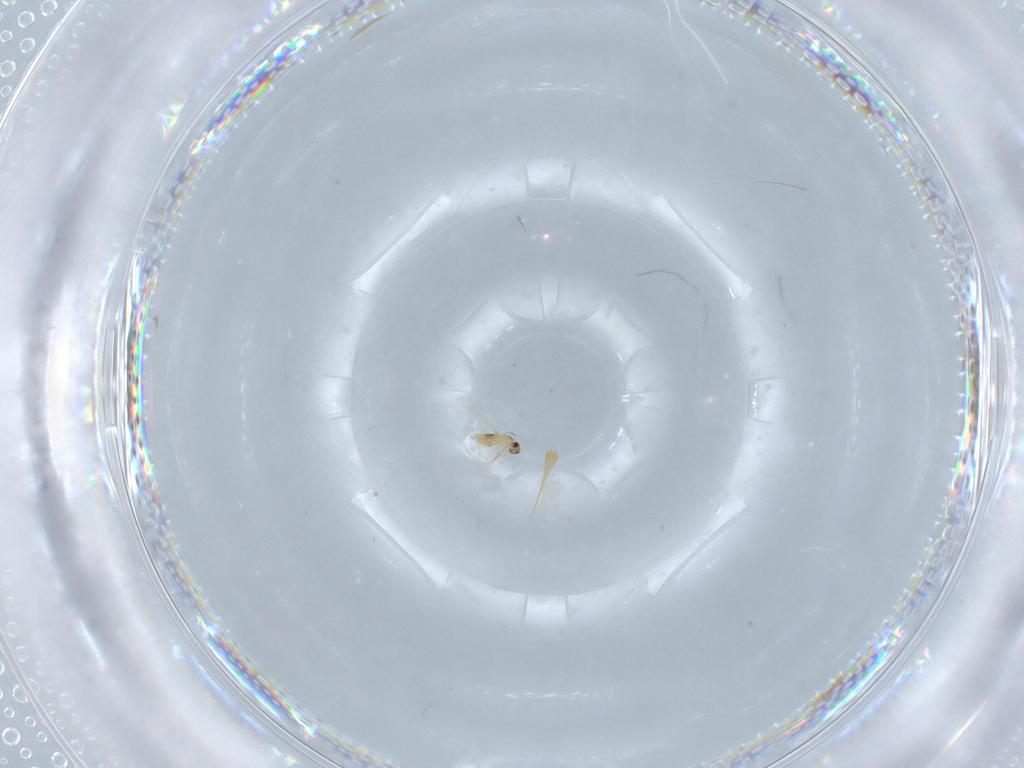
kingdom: Animalia
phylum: Arthropoda
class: Insecta
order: Hymenoptera
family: Mymaridae
